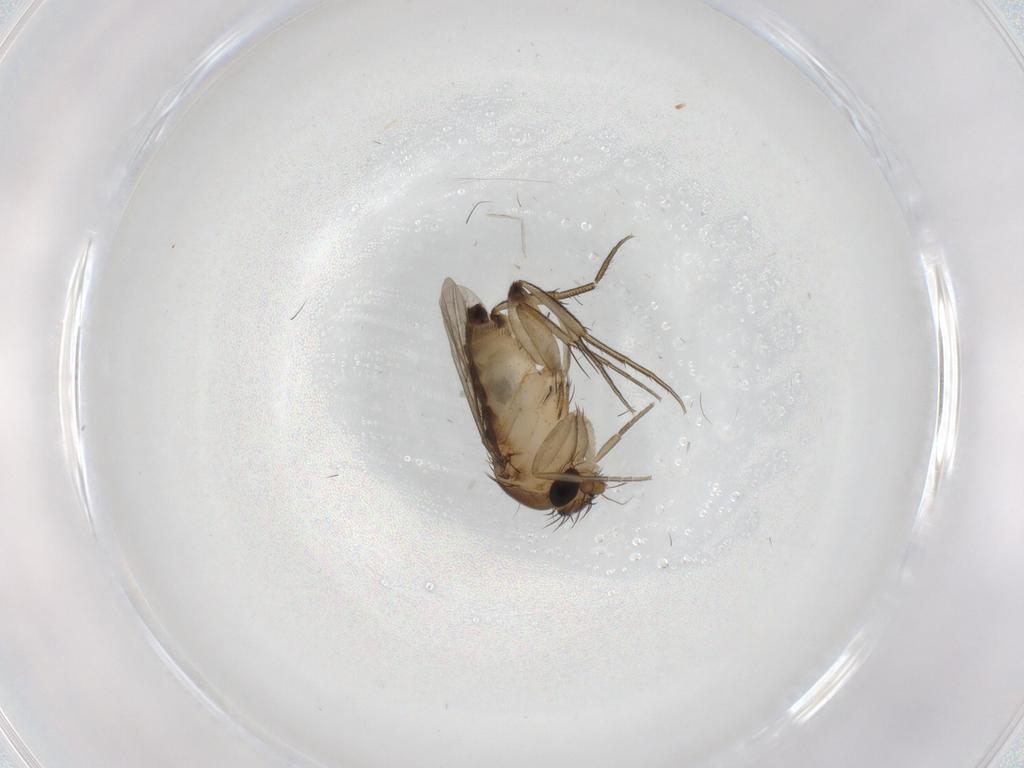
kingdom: Animalia
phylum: Arthropoda
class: Insecta
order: Diptera
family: Phoridae
